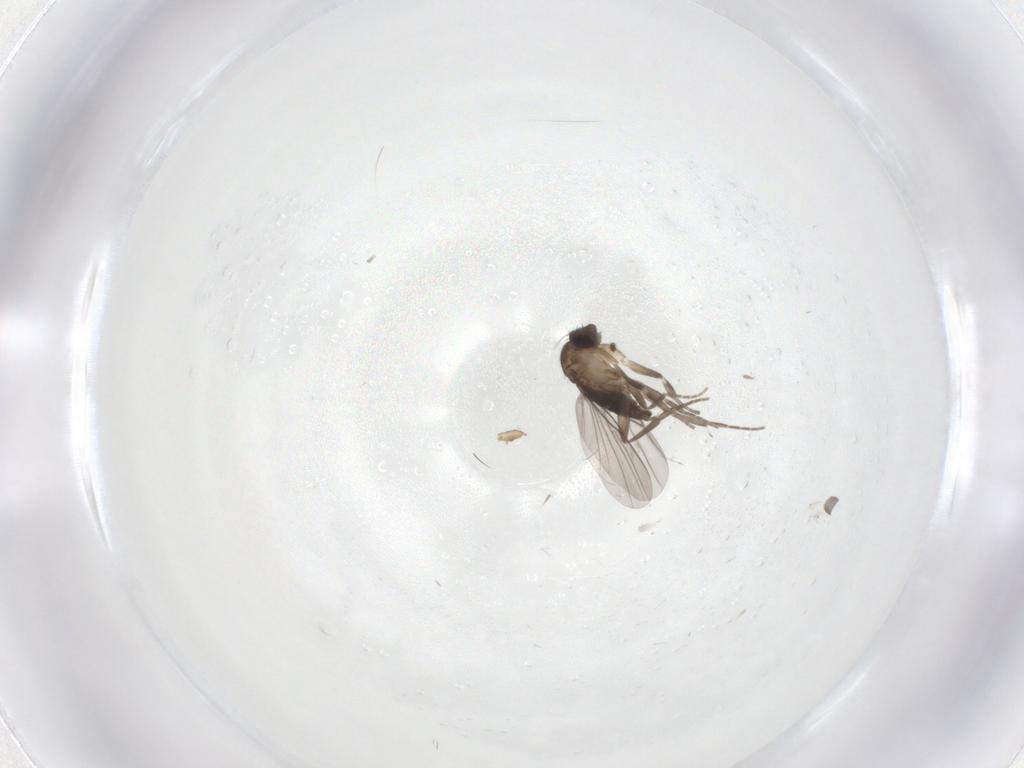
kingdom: Animalia
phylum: Arthropoda
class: Insecta
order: Diptera
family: Phoridae
